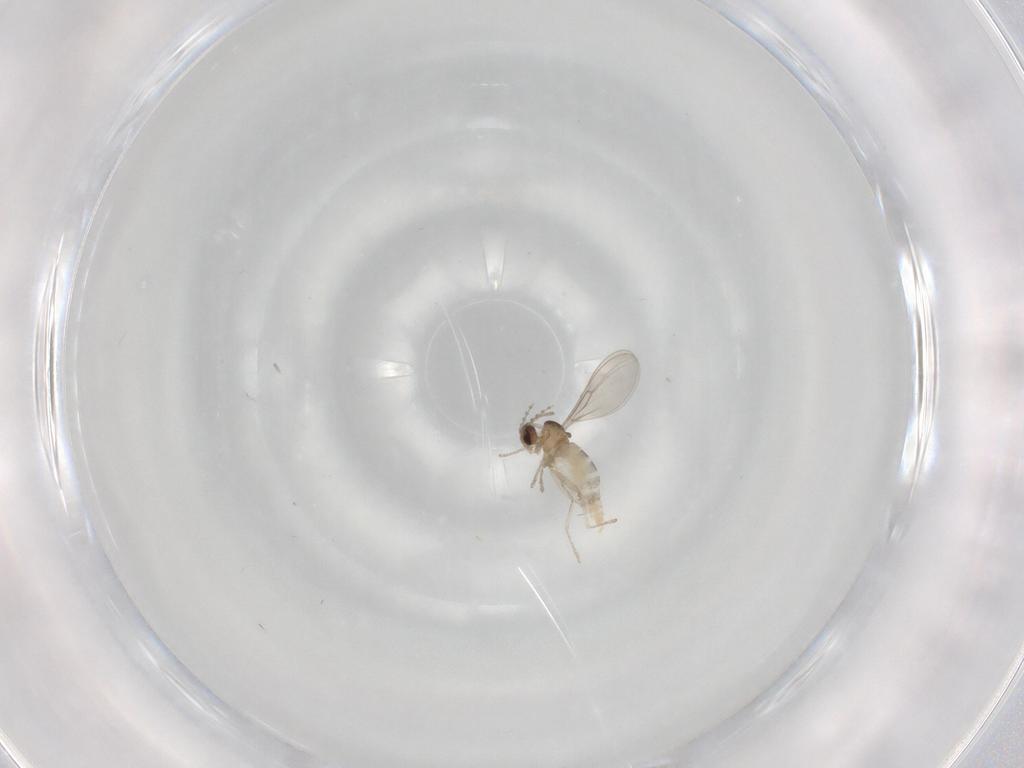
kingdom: Animalia
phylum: Arthropoda
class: Insecta
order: Diptera
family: Cecidomyiidae
